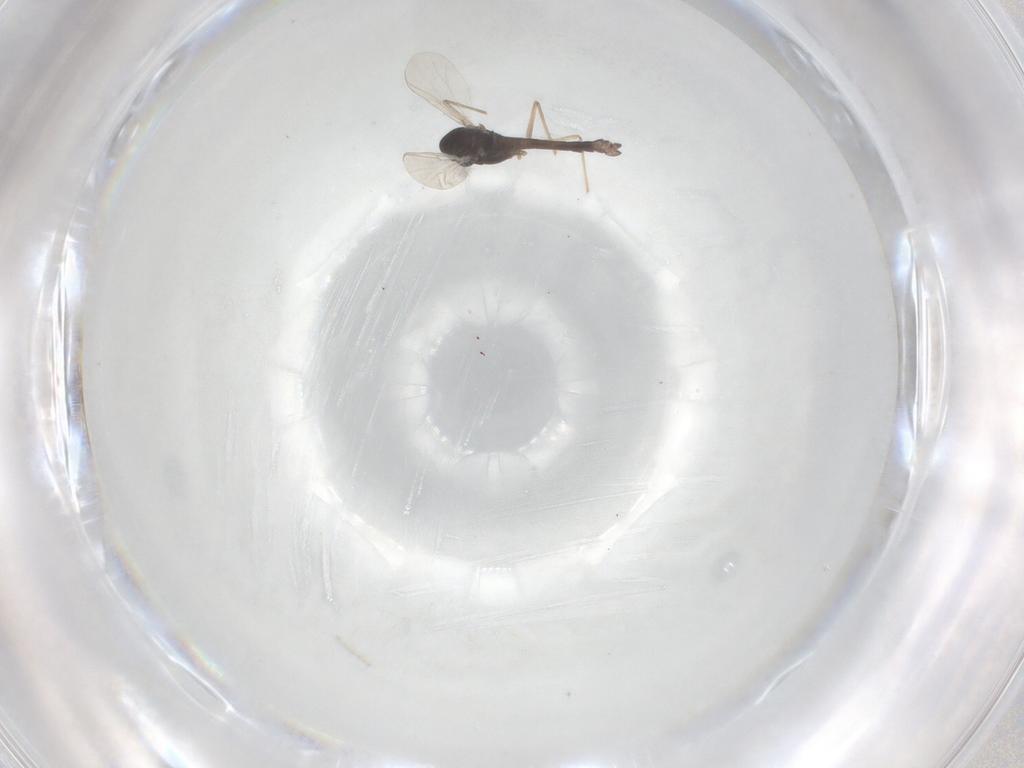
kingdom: Animalia
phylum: Arthropoda
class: Insecta
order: Diptera
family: Chironomidae
